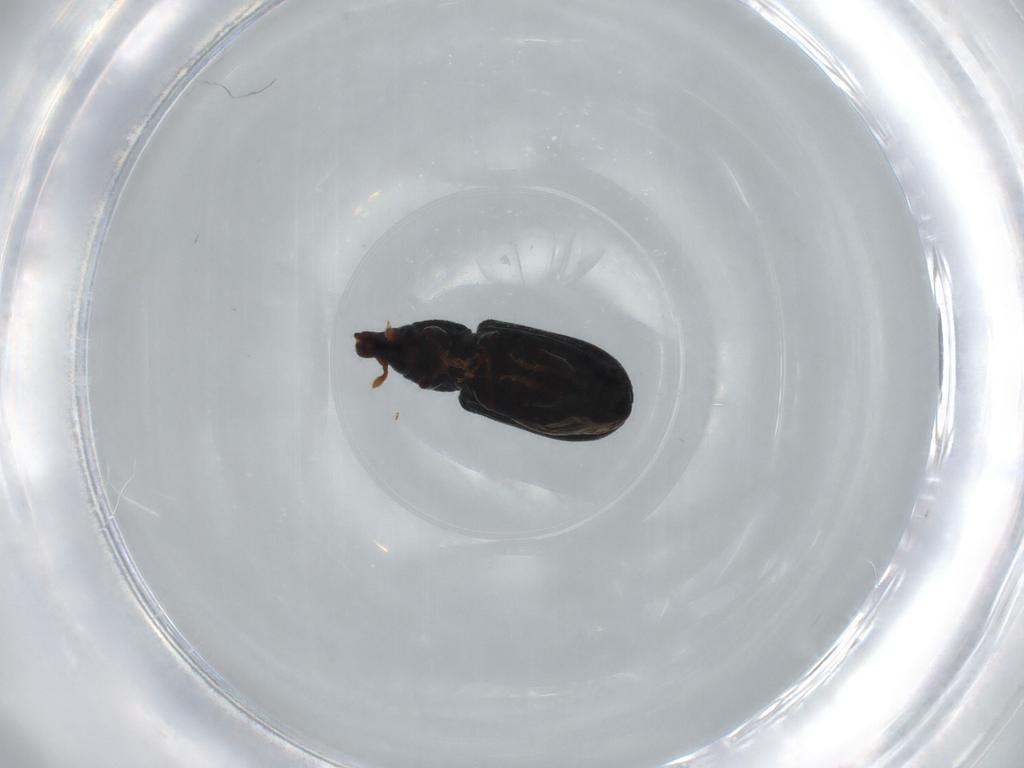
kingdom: Animalia
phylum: Arthropoda
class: Insecta
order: Coleoptera
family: Curculionidae
